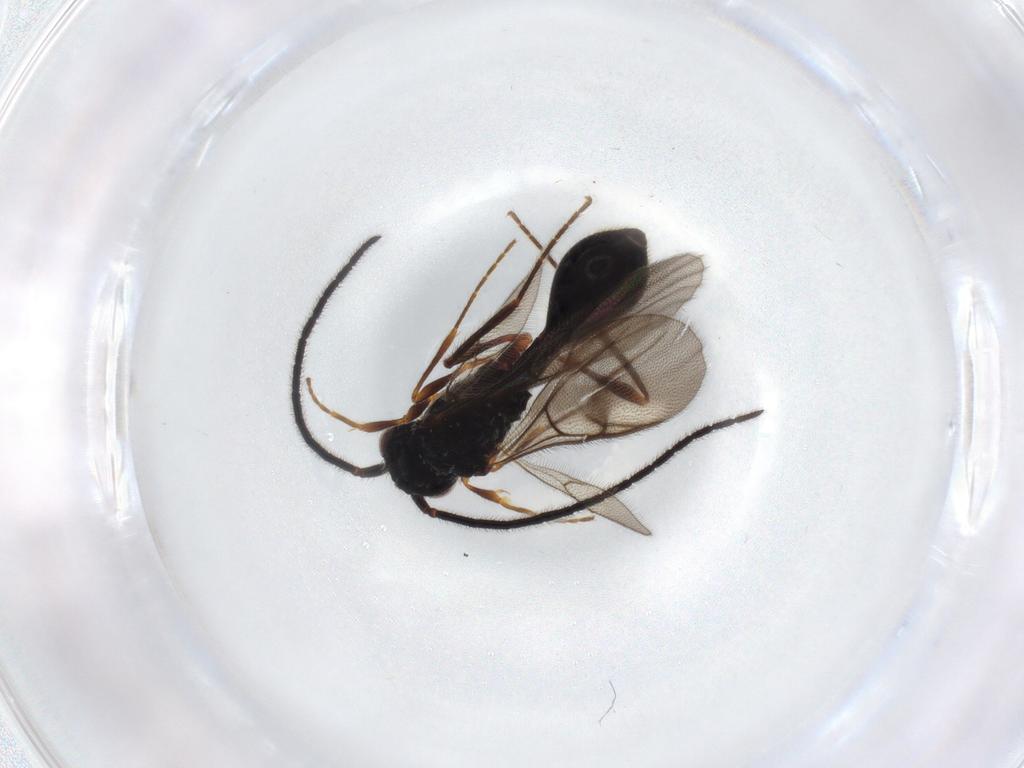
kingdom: Animalia
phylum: Arthropoda
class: Insecta
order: Hymenoptera
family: Diapriidae
